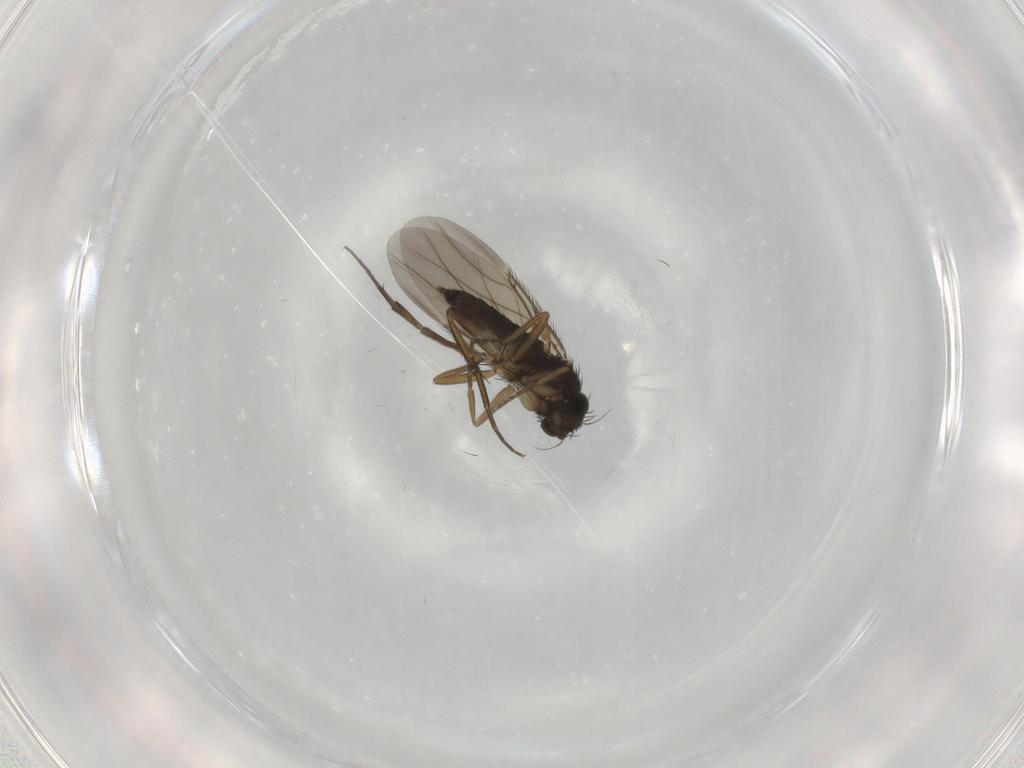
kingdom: Animalia
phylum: Arthropoda
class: Insecta
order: Diptera
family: Phoridae
